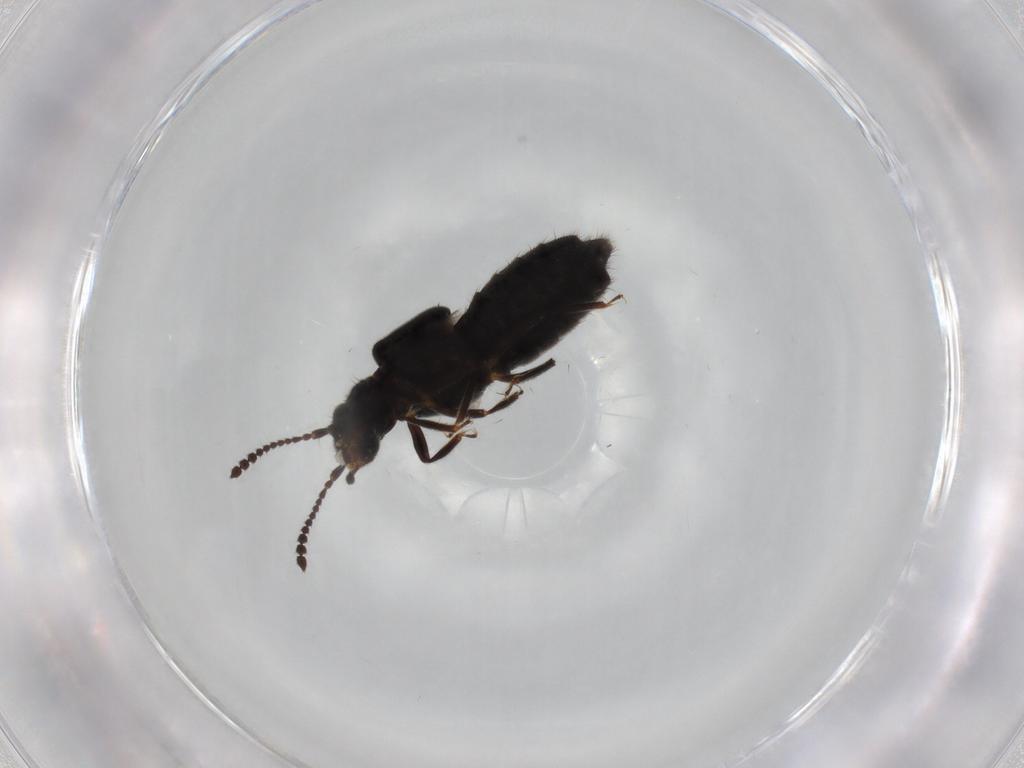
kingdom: Animalia
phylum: Arthropoda
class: Insecta
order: Coleoptera
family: Staphylinidae
